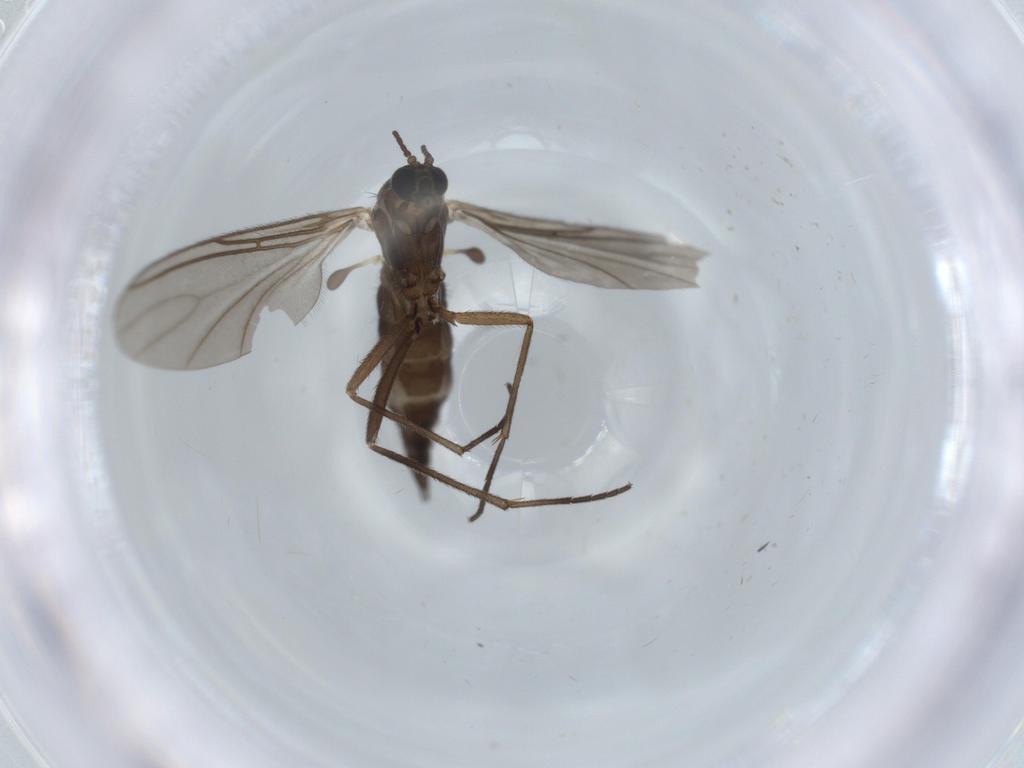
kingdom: Animalia
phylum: Arthropoda
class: Insecta
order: Diptera
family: Sciaridae
